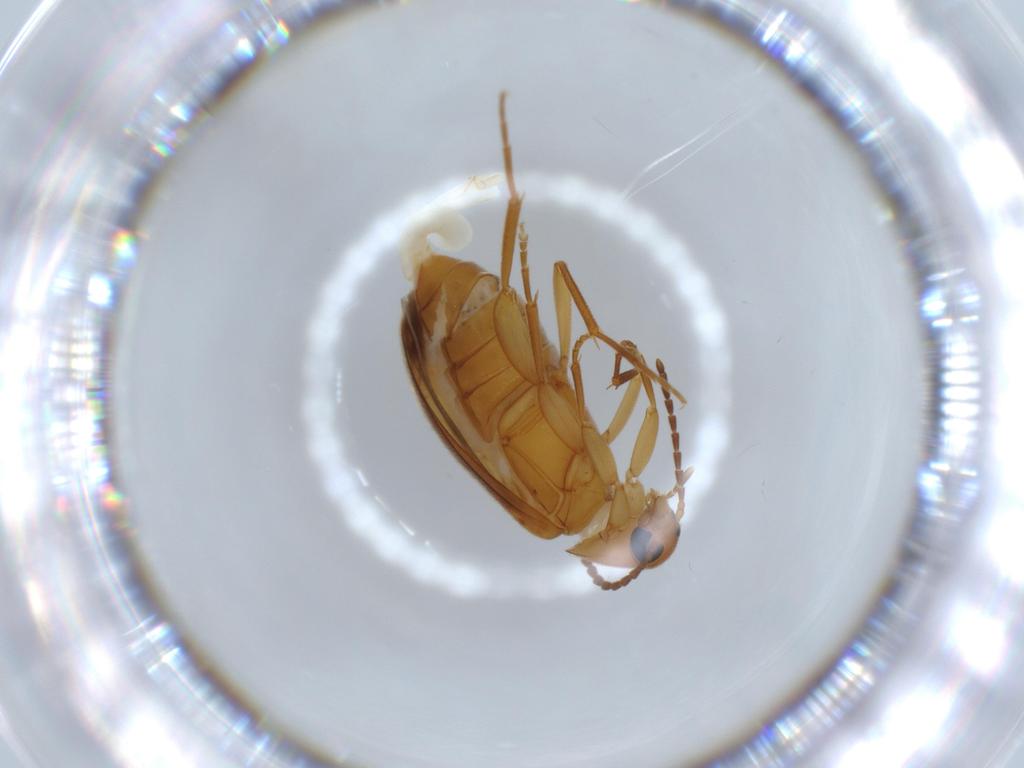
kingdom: Animalia
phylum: Arthropoda
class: Insecta
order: Coleoptera
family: Scraptiidae
